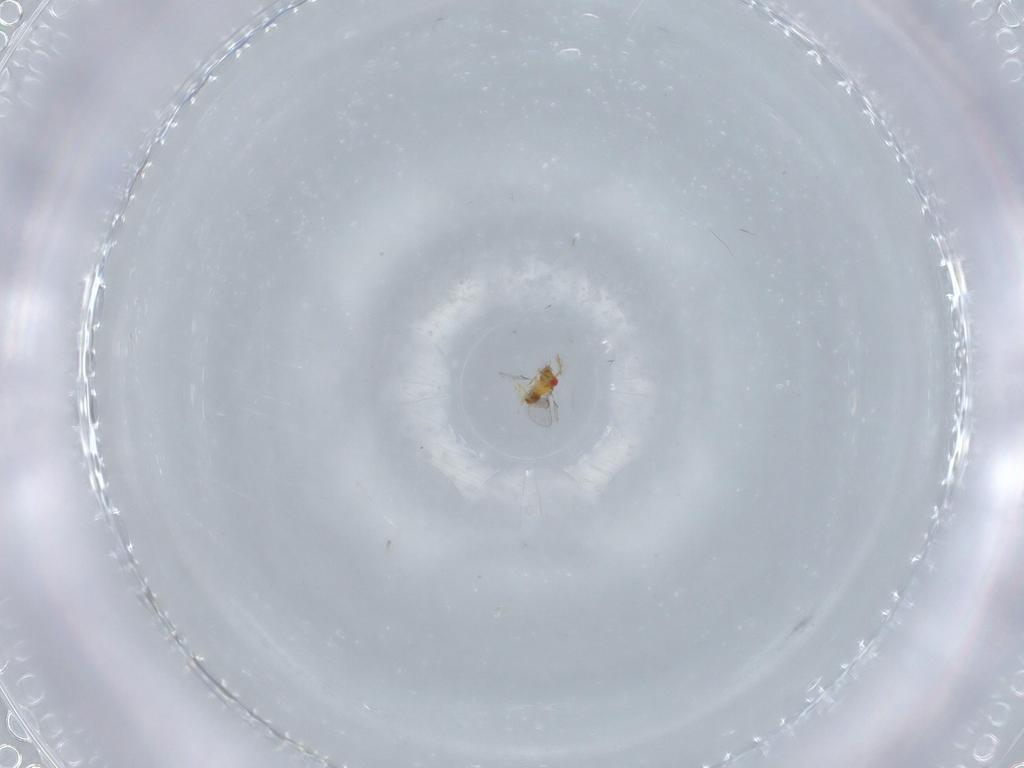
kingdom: Animalia
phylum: Arthropoda
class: Insecta
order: Hymenoptera
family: Trichogrammatidae
